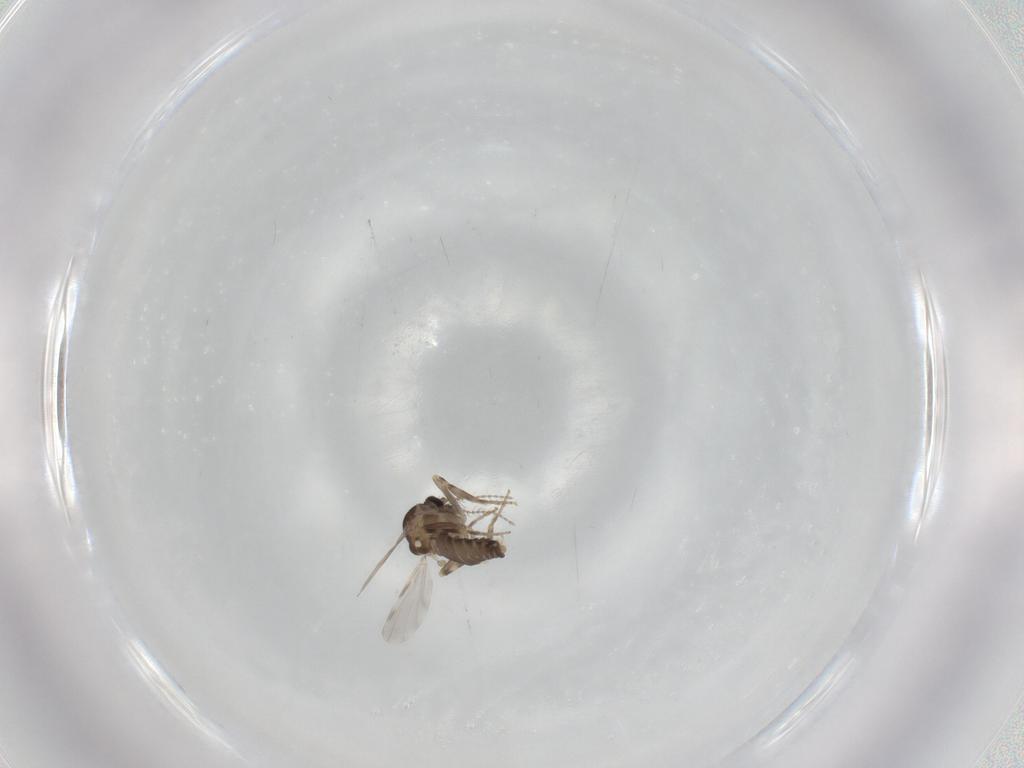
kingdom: Animalia
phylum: Arthropoda
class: Insecta
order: Diptera
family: Ceratopogonidae
